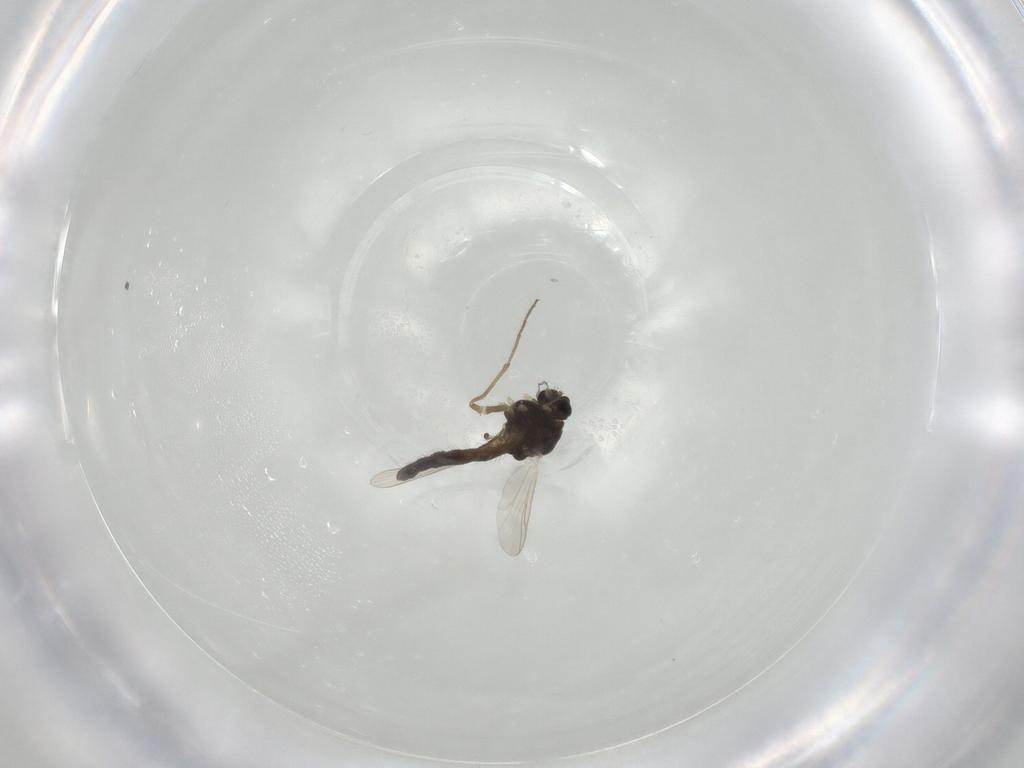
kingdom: Animalia
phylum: Arthropoda
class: Insecta
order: Diptera
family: Chironomidae
